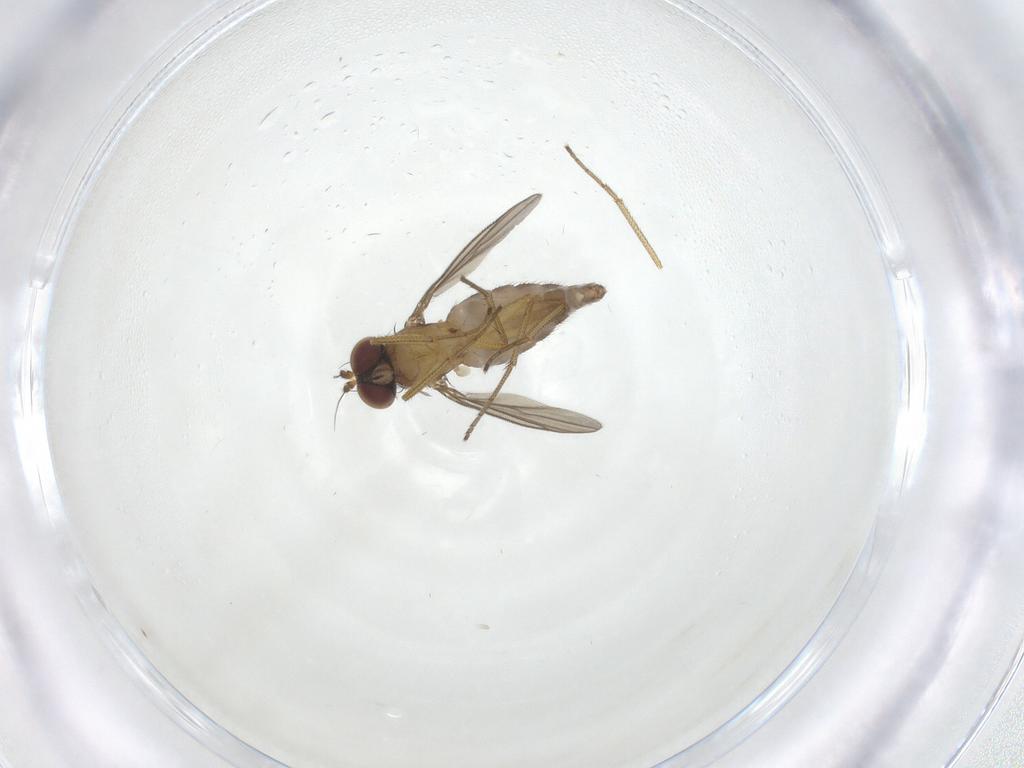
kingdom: Animalia
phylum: Arthropoda
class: Insecta
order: Diptera
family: Dolichopodidae
